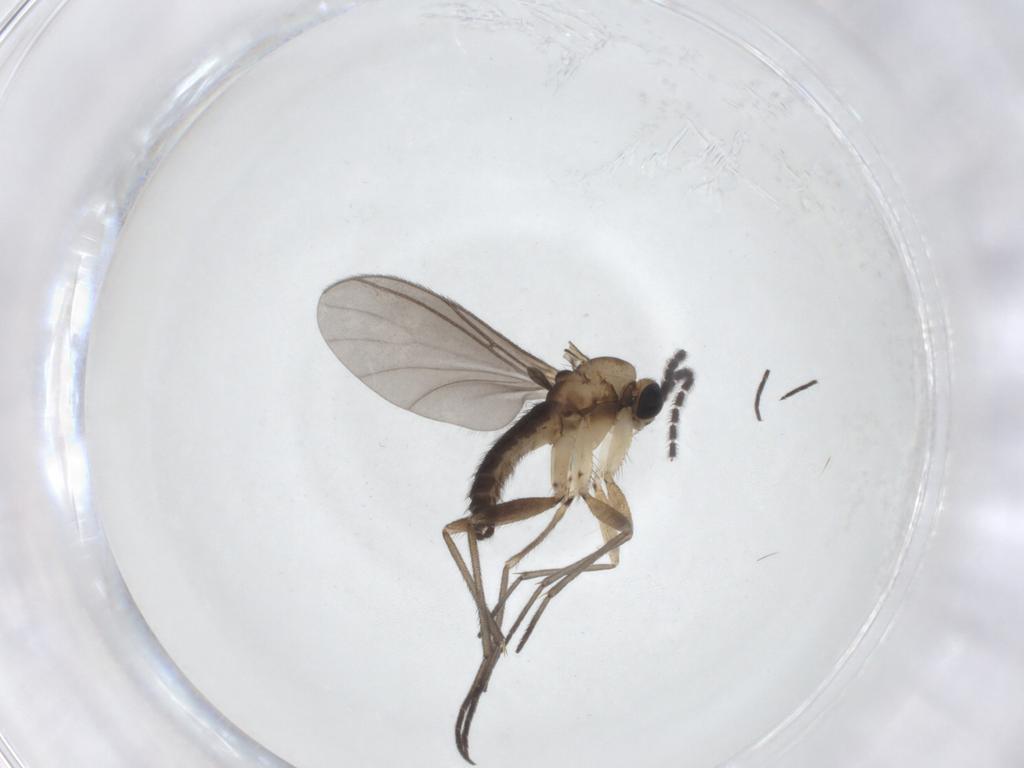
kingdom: Animalia
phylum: Arthropoda
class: Insecta
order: Diptera
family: Sciaridae
